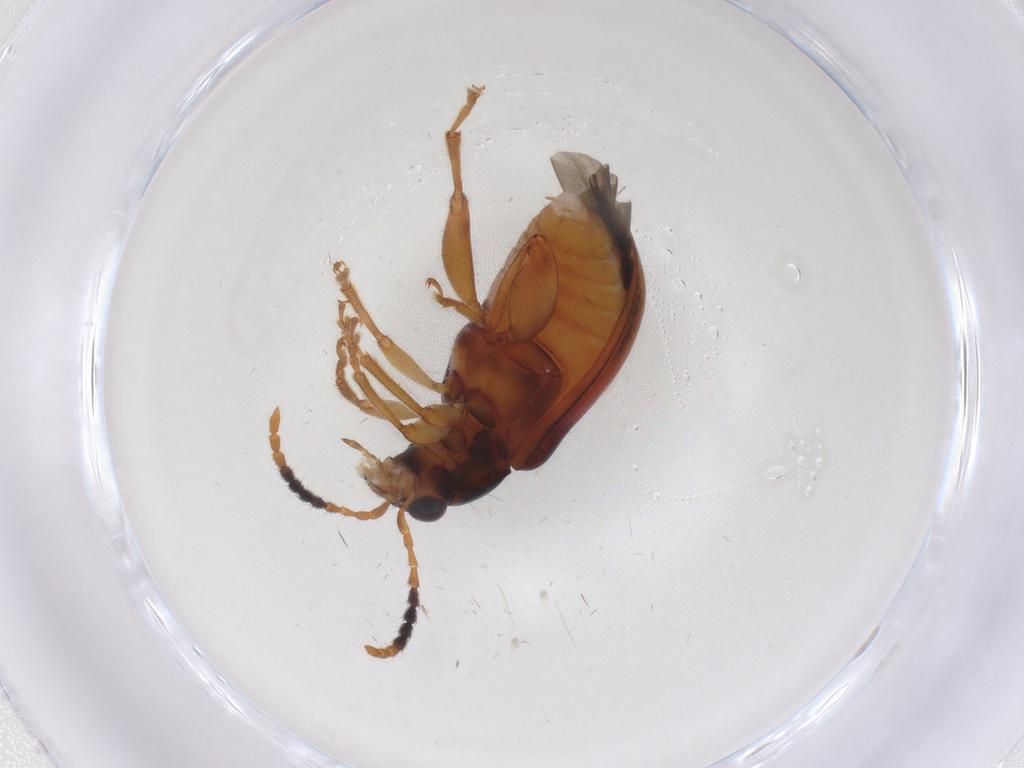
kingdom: Animalia
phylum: Arthropoda
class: Insecta
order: Coleoptera
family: Chrysomelidae
